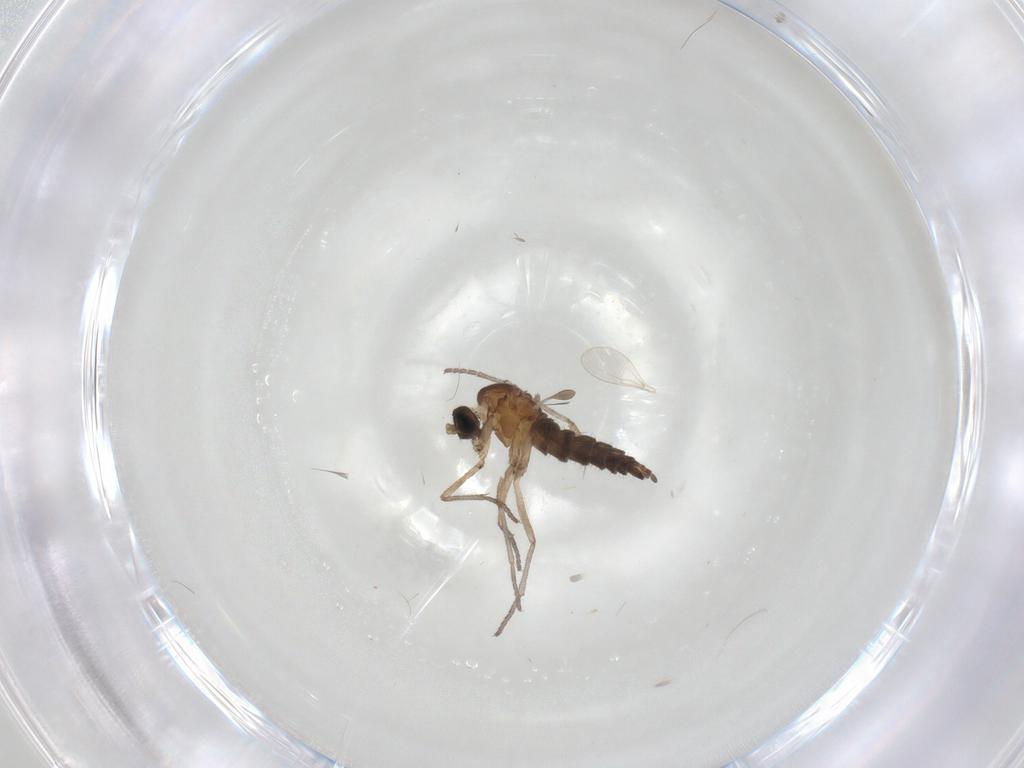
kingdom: Animalia
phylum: Arthropoda
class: Insecta
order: Diptera
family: Sciaridae
